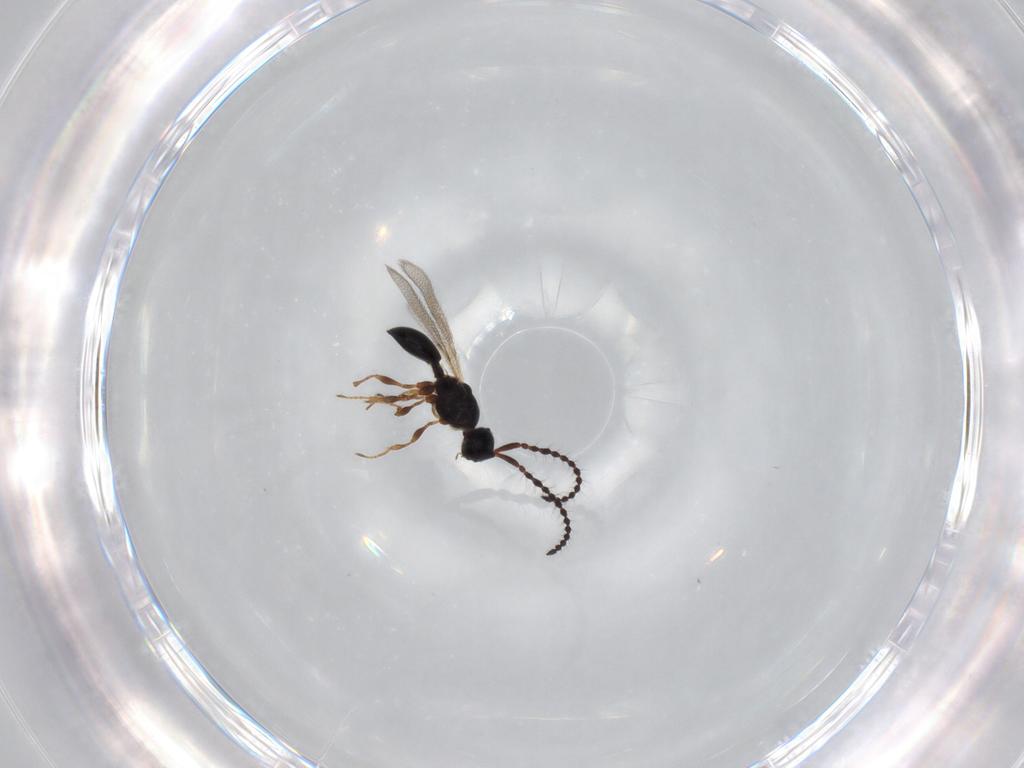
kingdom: Animalia
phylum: Arthropoda
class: Insecta
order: Hymenoptera
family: Diapriidae
